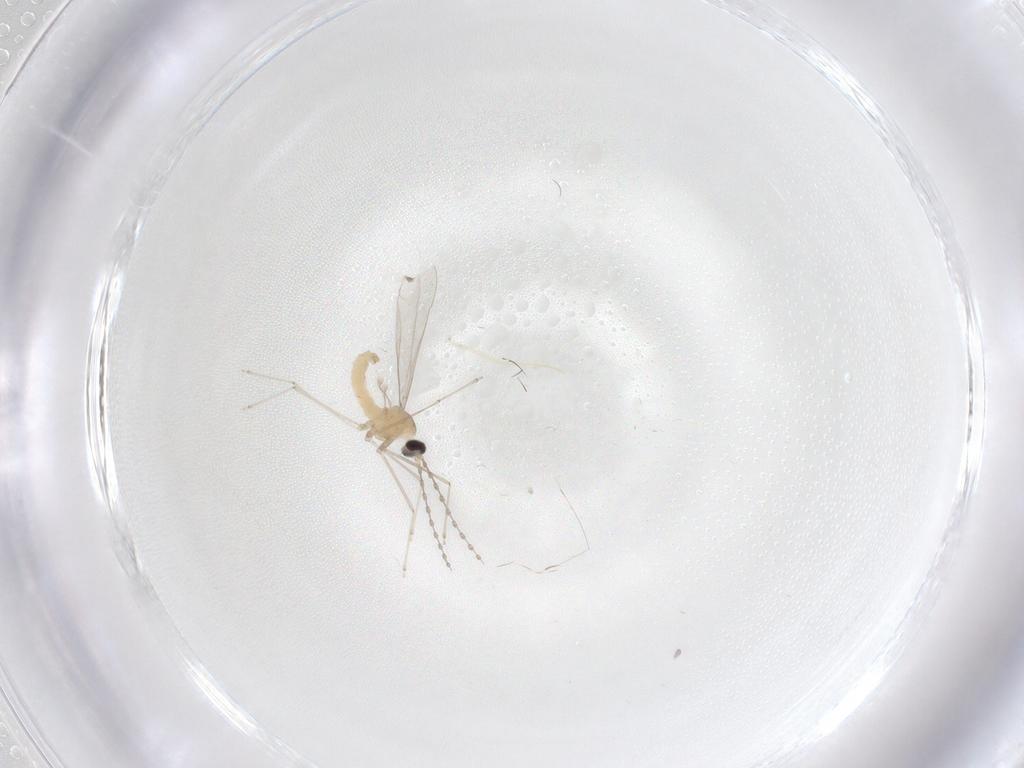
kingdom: Animalia
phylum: Arthropoda
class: Insecta
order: Diptera
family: Cecidomyiidae
